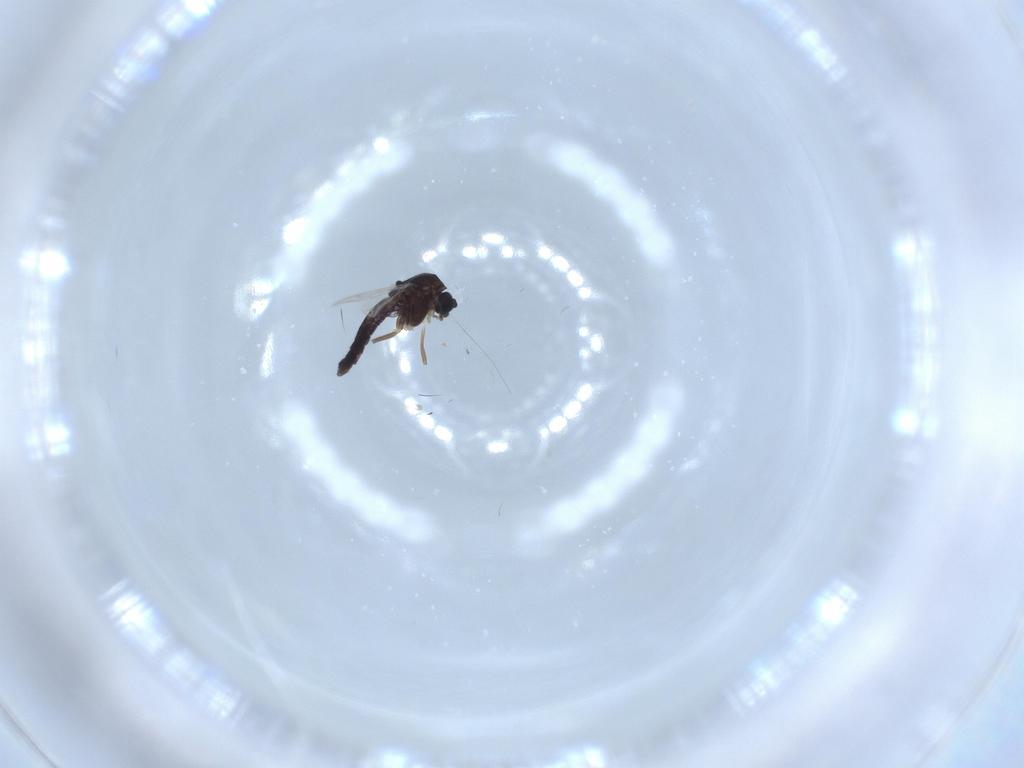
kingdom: Animalia
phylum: Arthropoda
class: Insecta
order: Diptera
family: Chironomidae
